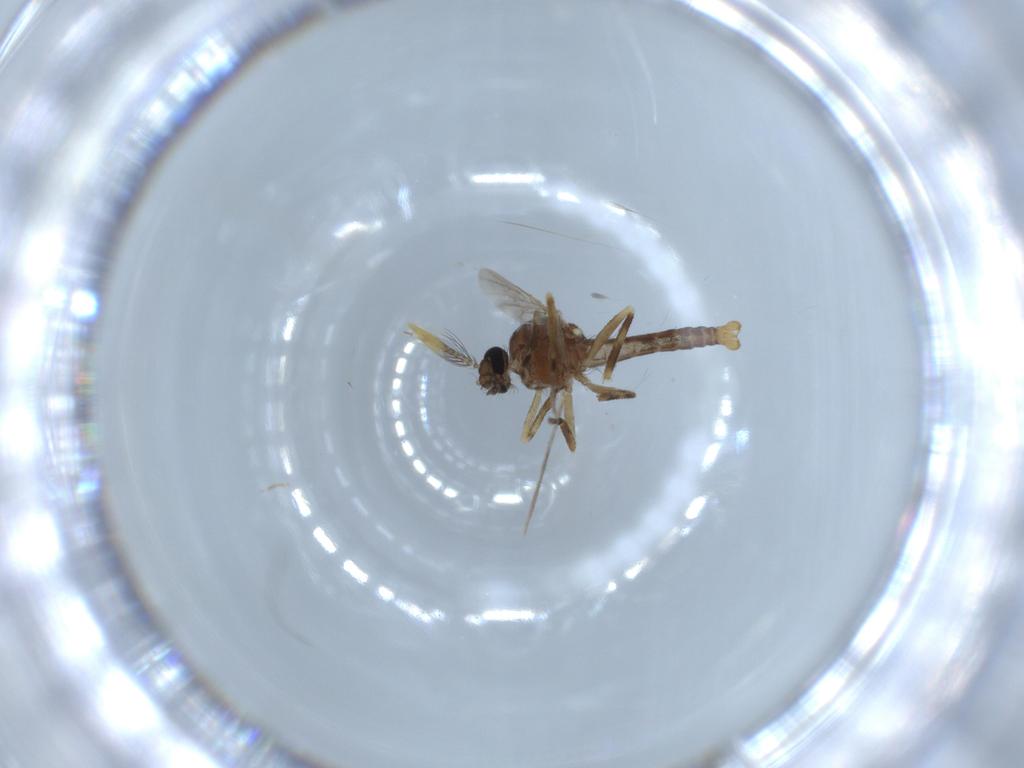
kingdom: Animalia
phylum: Arthropoda
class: Insecta
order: Diptera
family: Ceratopogonidae
